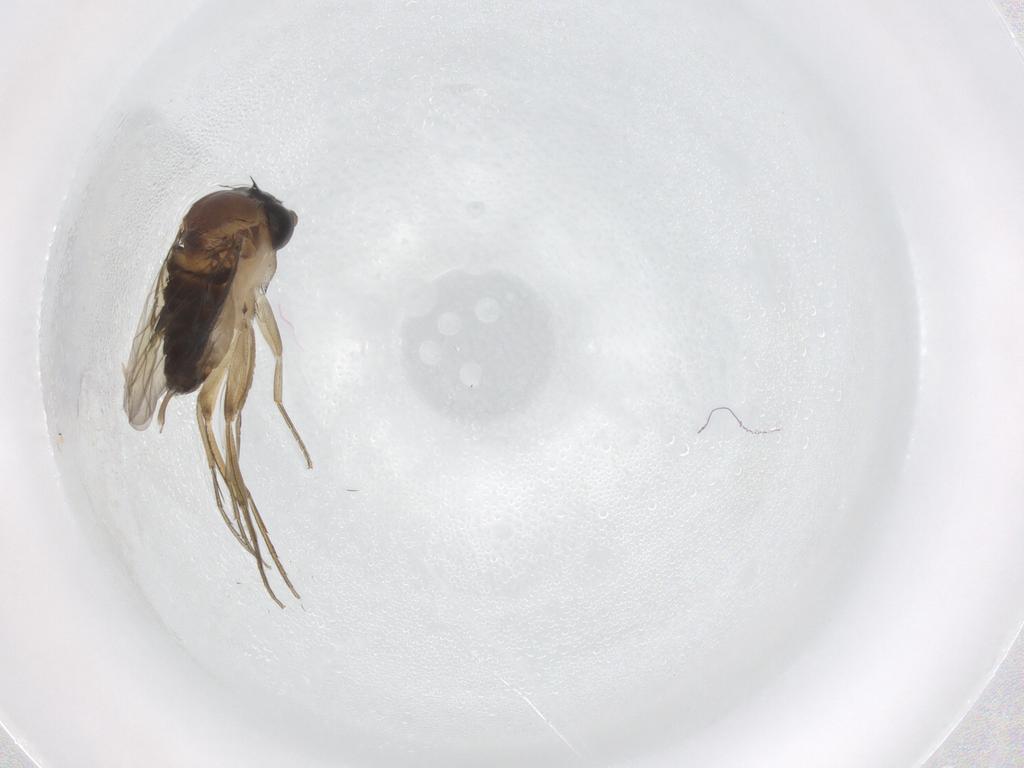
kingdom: Animalia
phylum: Arthropoda
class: Insecta
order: Diptera
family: Phoridae
